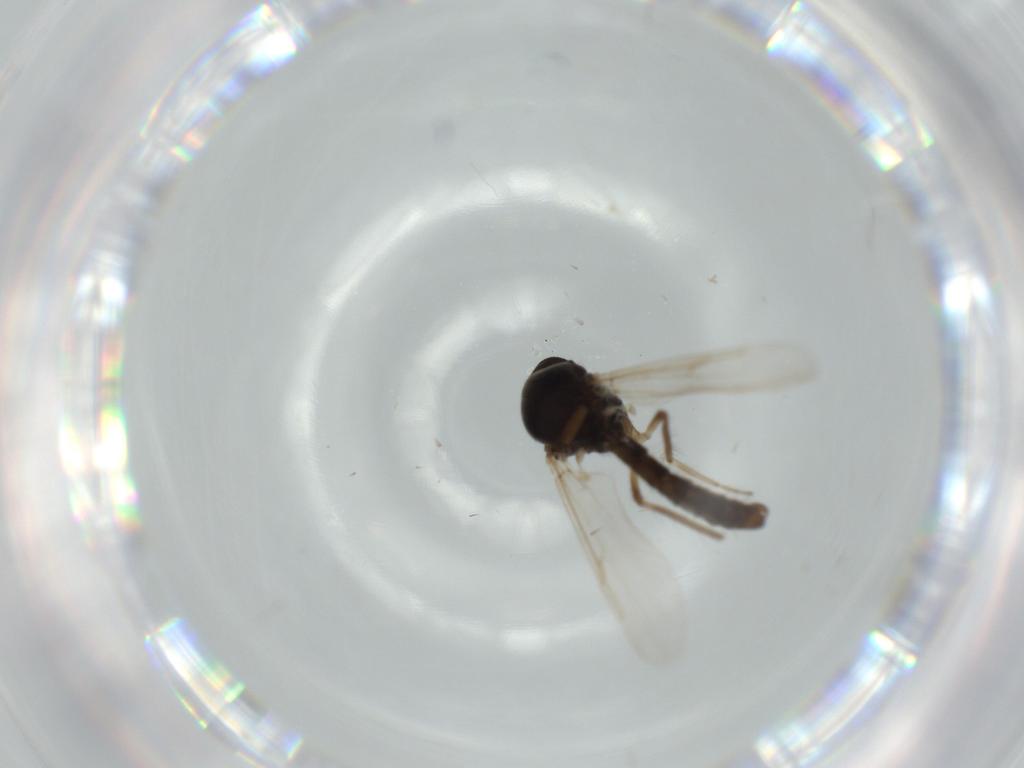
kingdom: Animalia
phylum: Arthropoda
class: Insecta
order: Diptera
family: Ceratopogonidae
